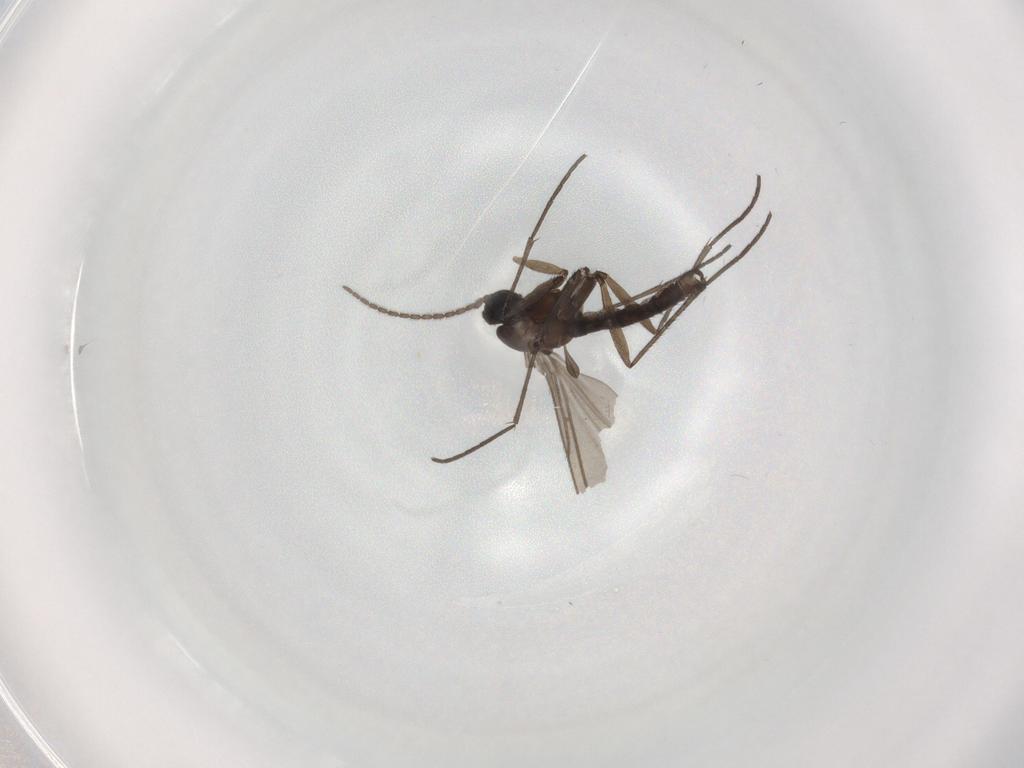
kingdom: Animalia
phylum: Arthropoda
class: Insecta
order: Diptera
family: Sciaridae
